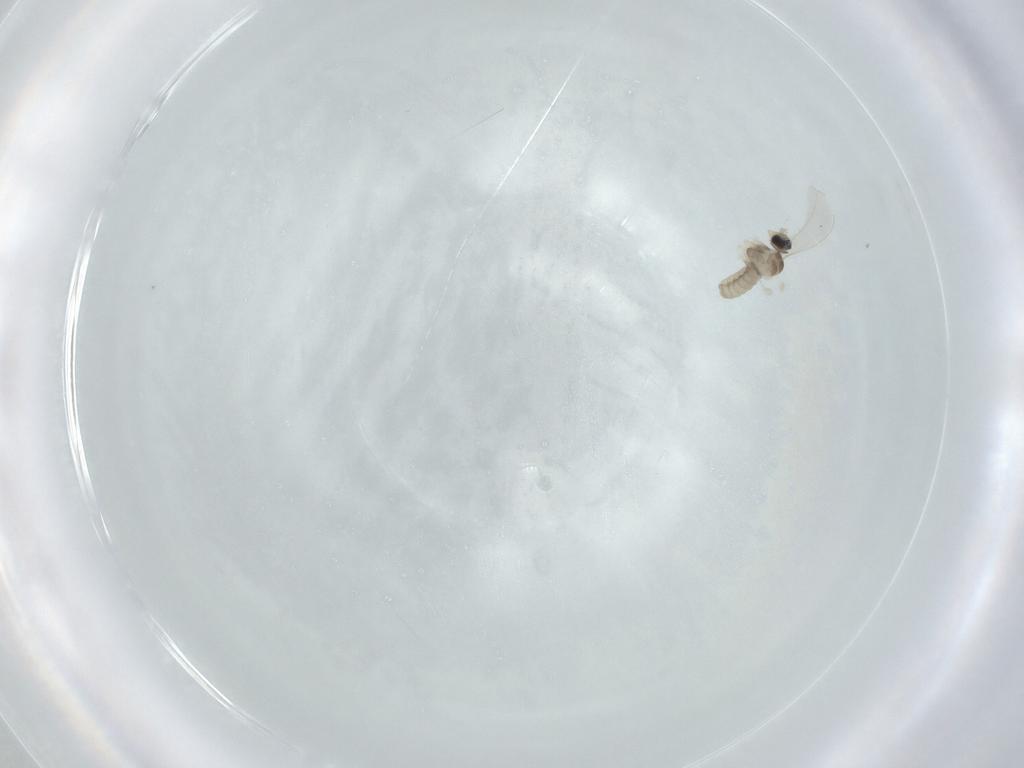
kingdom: Animalia
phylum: Arthropoda
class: Insecta
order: Diptera
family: Cecidomyiidae
